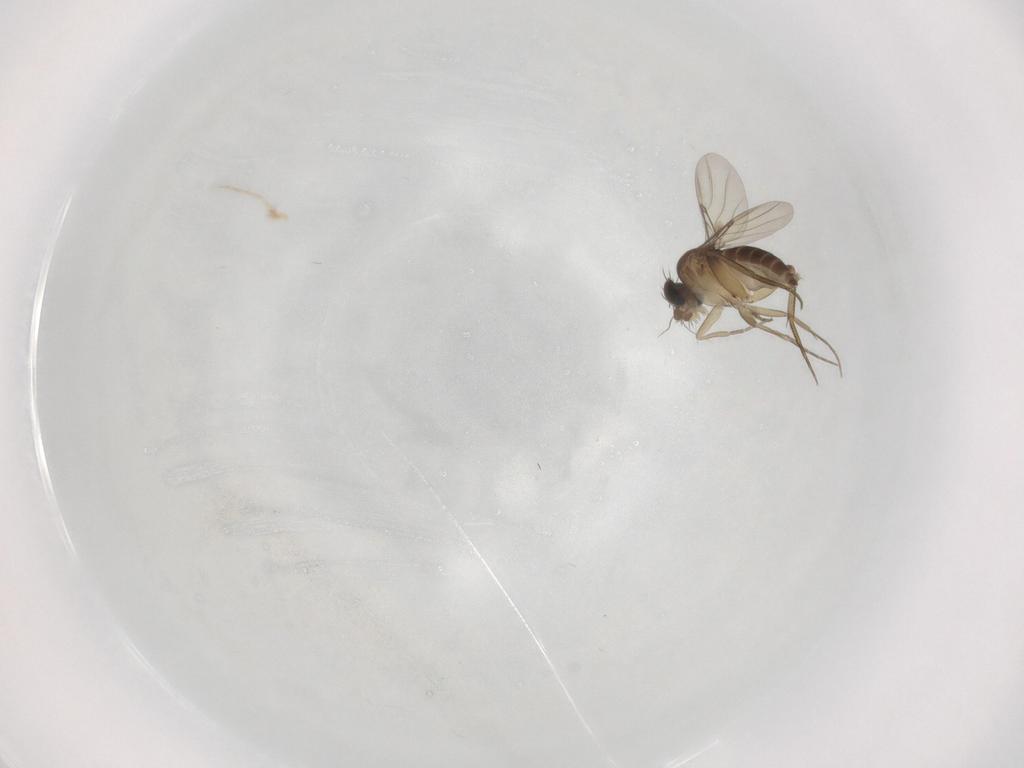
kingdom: Animalia
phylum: Arthropoda
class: Insecta
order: Diptera
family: Phoridae
